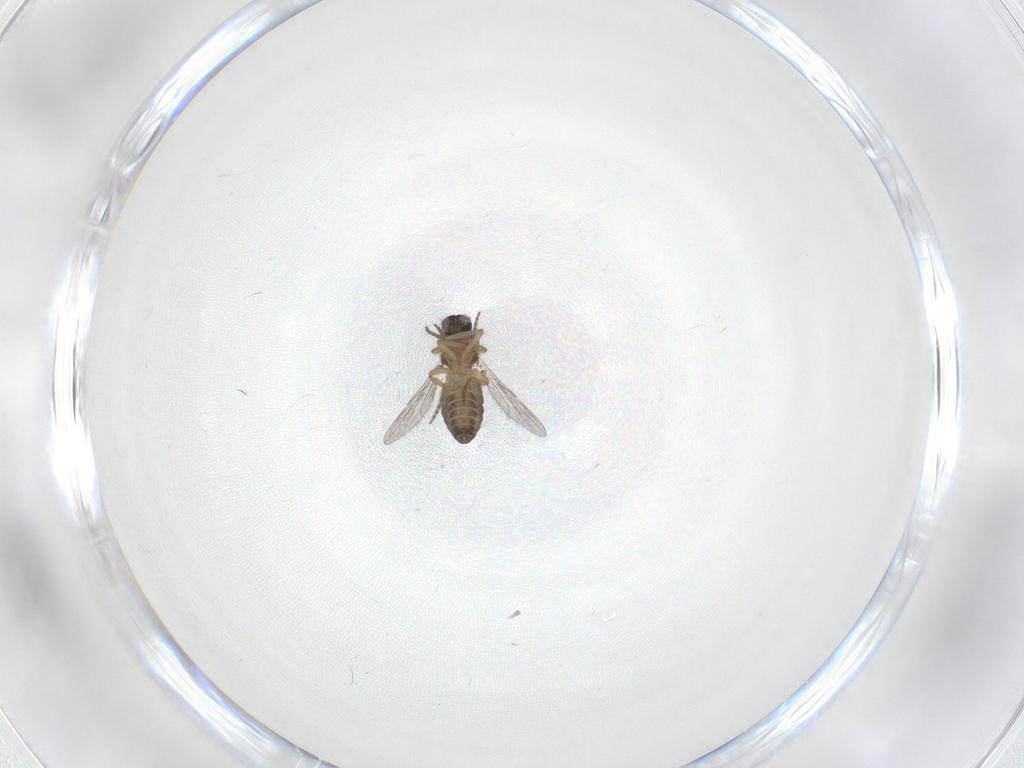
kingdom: Animalia
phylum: Arthropoda
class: Insecta
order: Diptera
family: Ceratopogonidae
